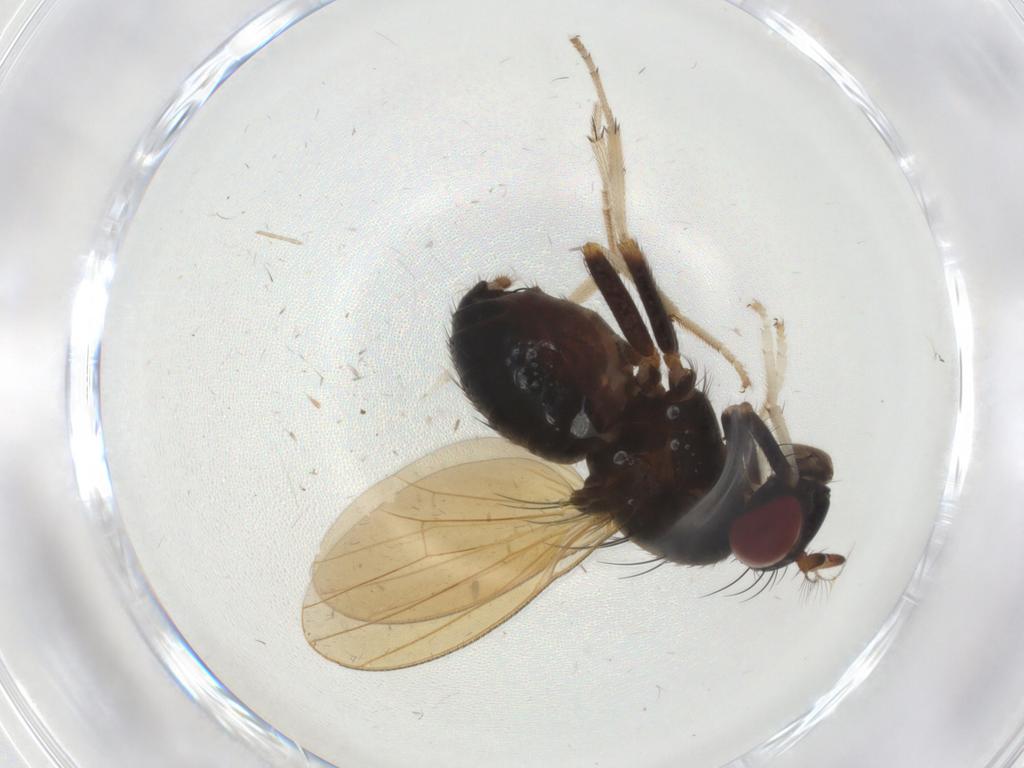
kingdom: Animalia
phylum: Arthropoda
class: Insecta
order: Diptera
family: Lauxaniidae
